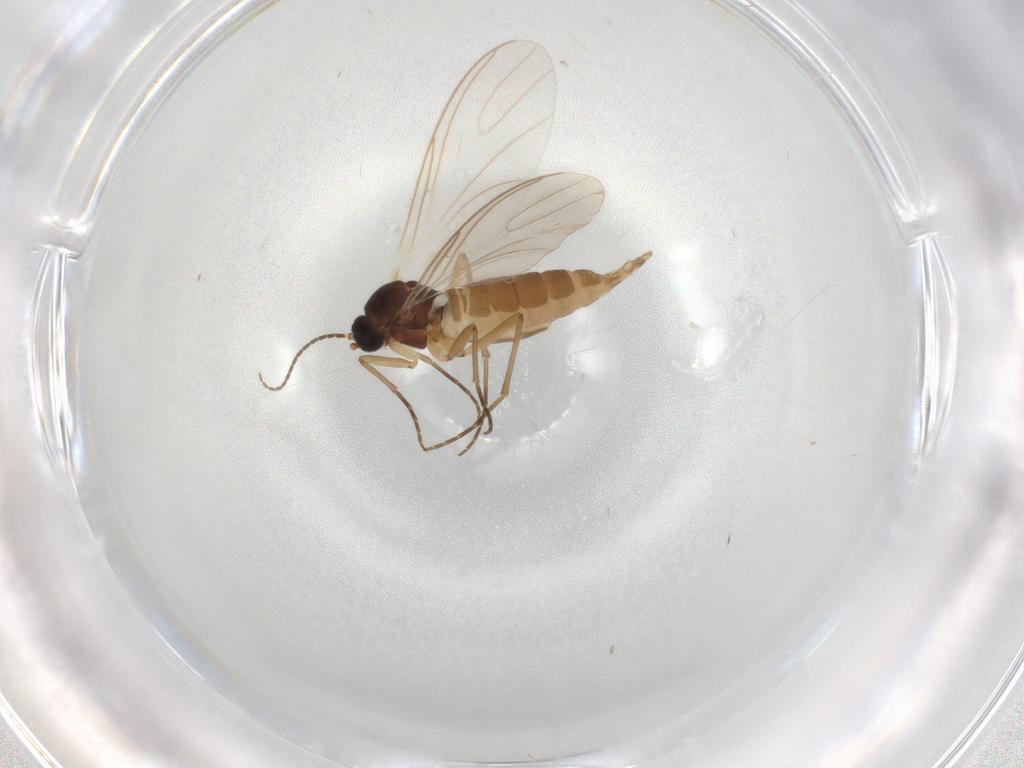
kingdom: Animalia
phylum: Arthropoda
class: Insecta
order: Diptera
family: Sciaridae
